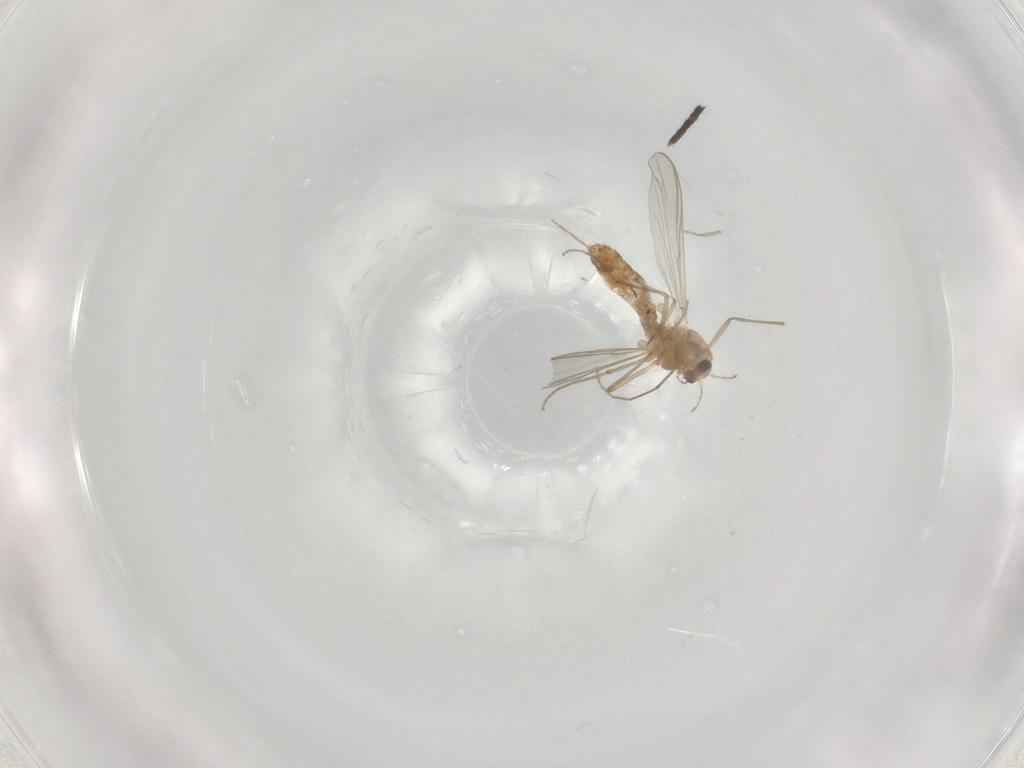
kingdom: Animalia
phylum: Arthropoda
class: Insecta
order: Diptera
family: Chironomidae
